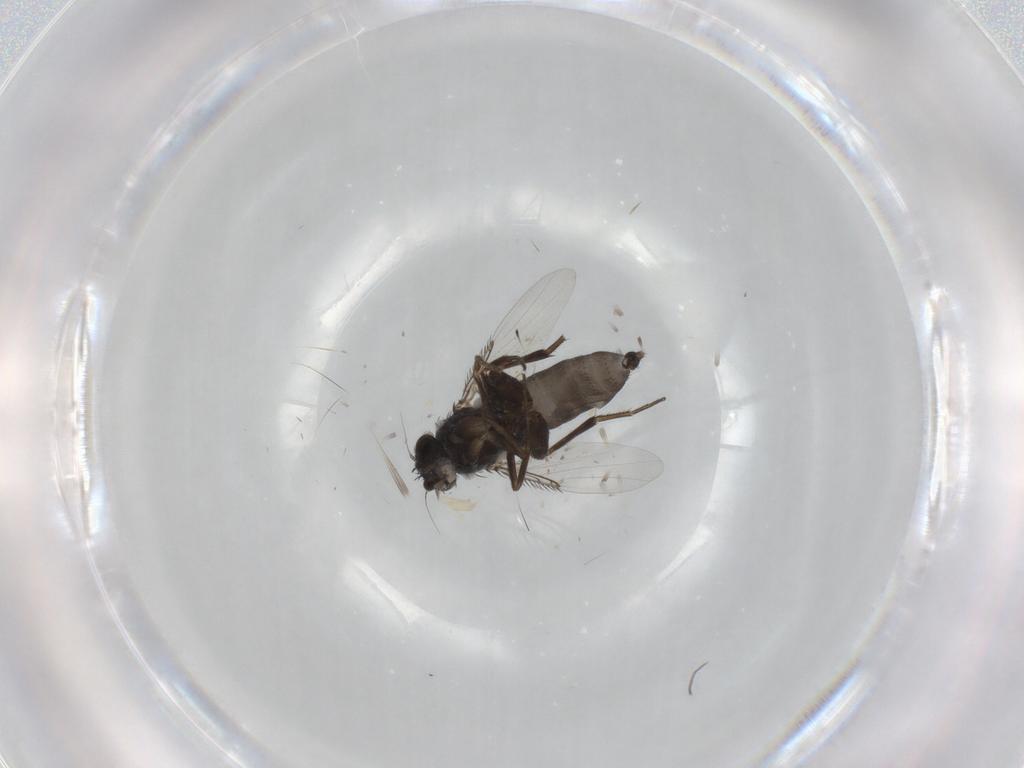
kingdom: Animalia
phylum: Arthropoda
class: Insecta
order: Diptera
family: Phoridae
